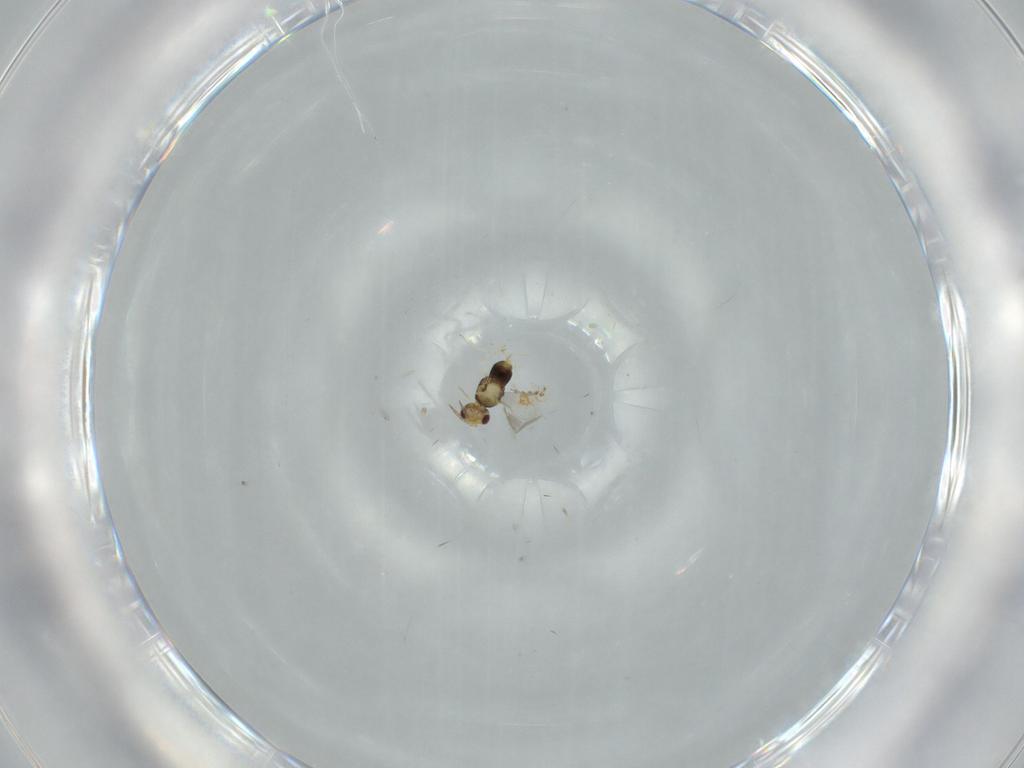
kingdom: Animalia
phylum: Arthropoda
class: Insecta
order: Hymenoptera
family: Aphelinidae
